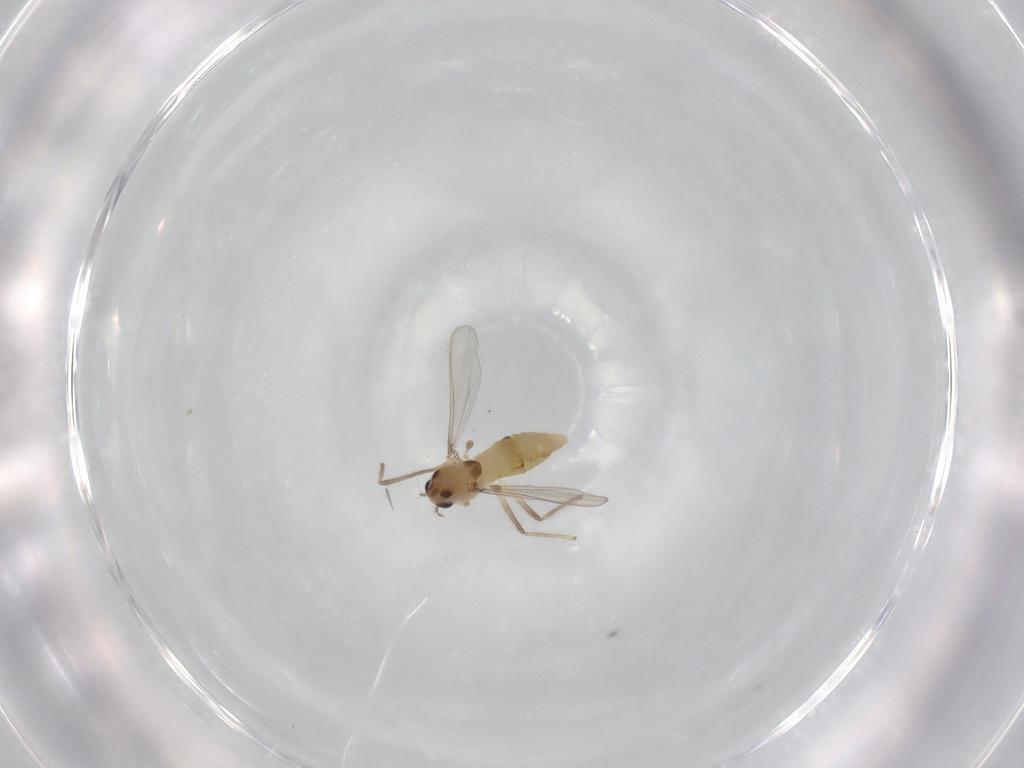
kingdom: Animalia
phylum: Arthropoda
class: Insecta
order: Diptera
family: Chironomidae
